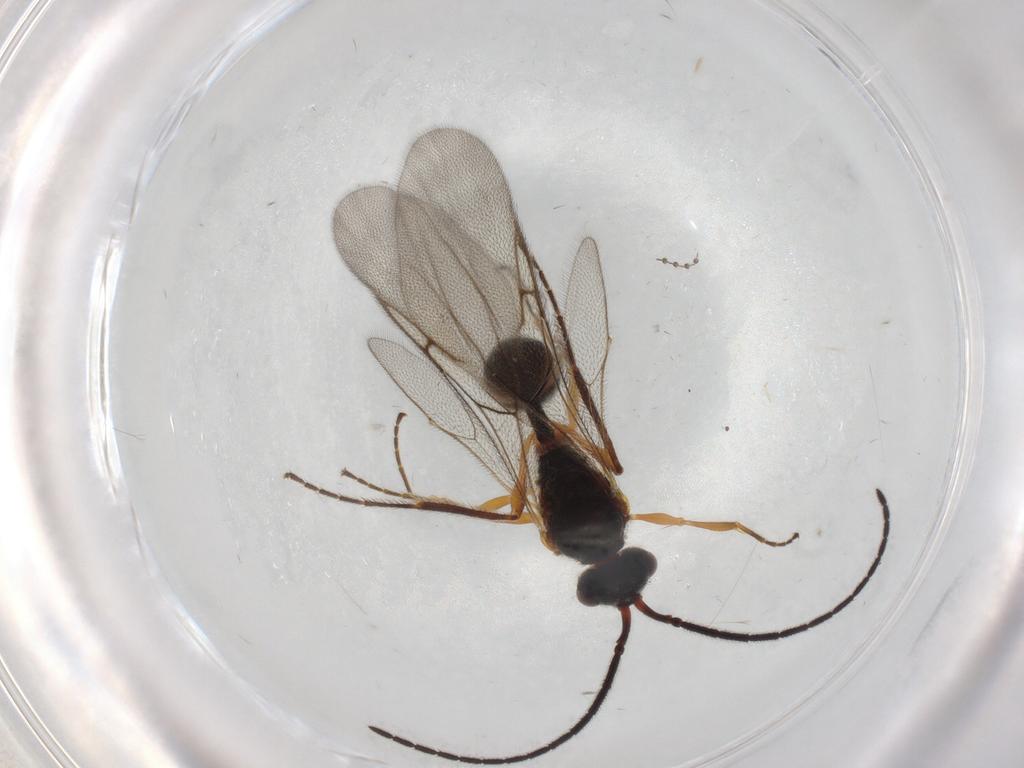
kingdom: Animalia
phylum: Arthropoda
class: Insecta
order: Hymenoptera
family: Diapriidae
